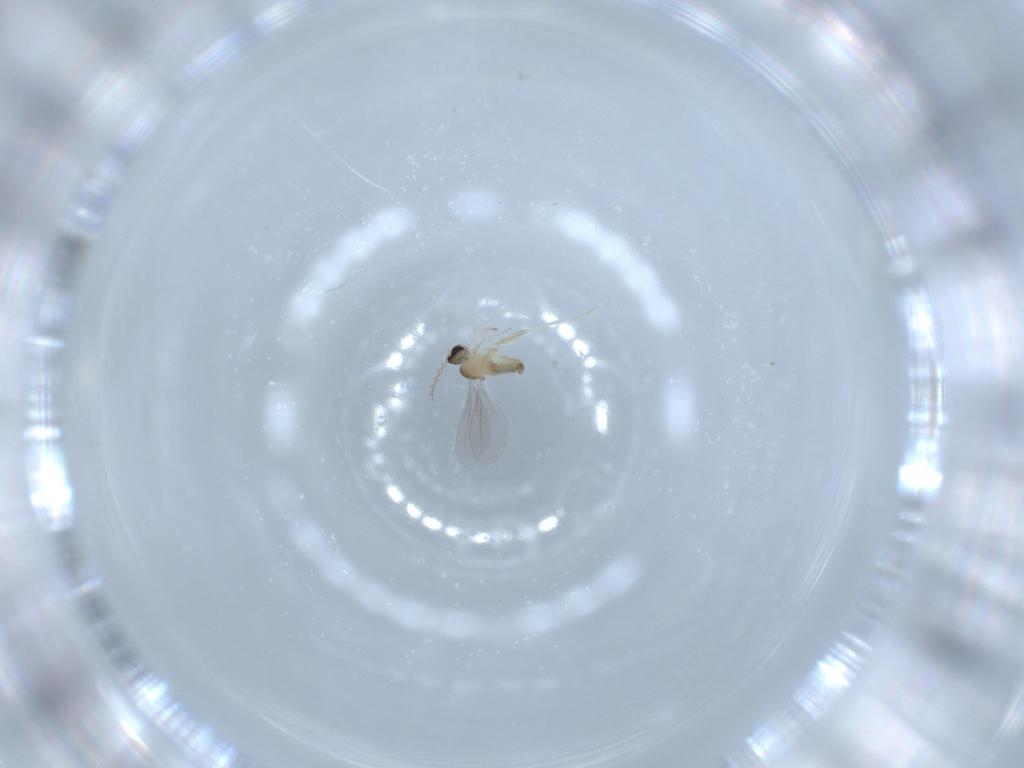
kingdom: Animalia
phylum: Arthropoda
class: Insecta
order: Diptera
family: Cecidomyiidae
